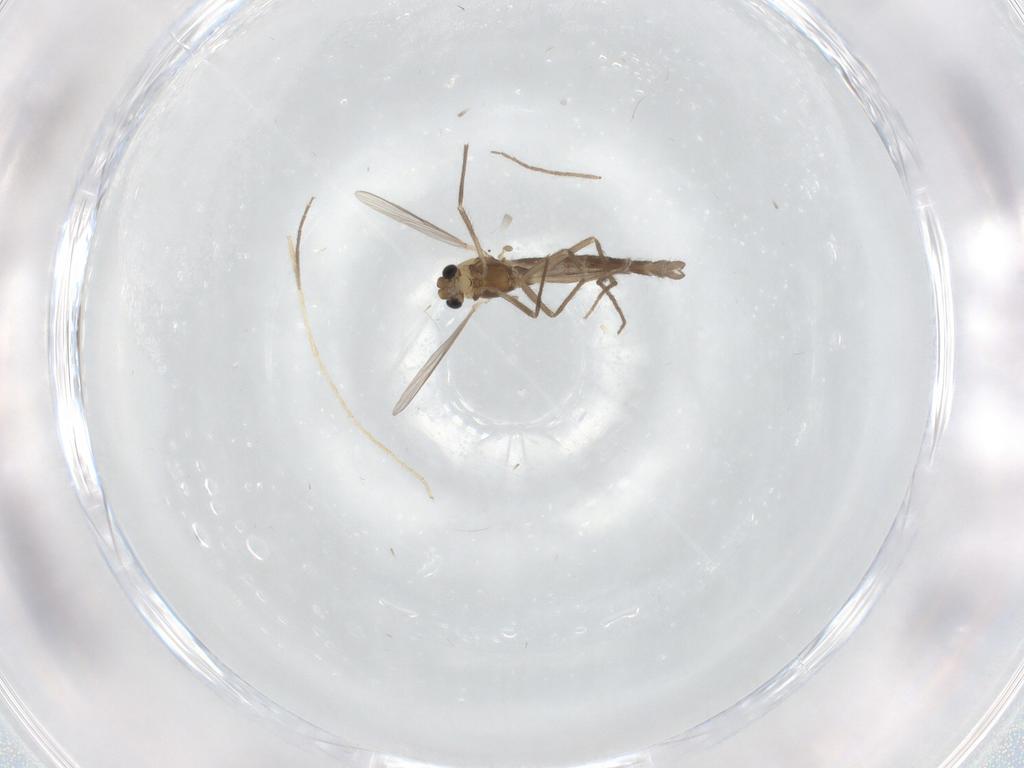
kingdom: Animalia
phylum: Arthropoda
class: Insecta
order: Diptera
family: Chironomidae
